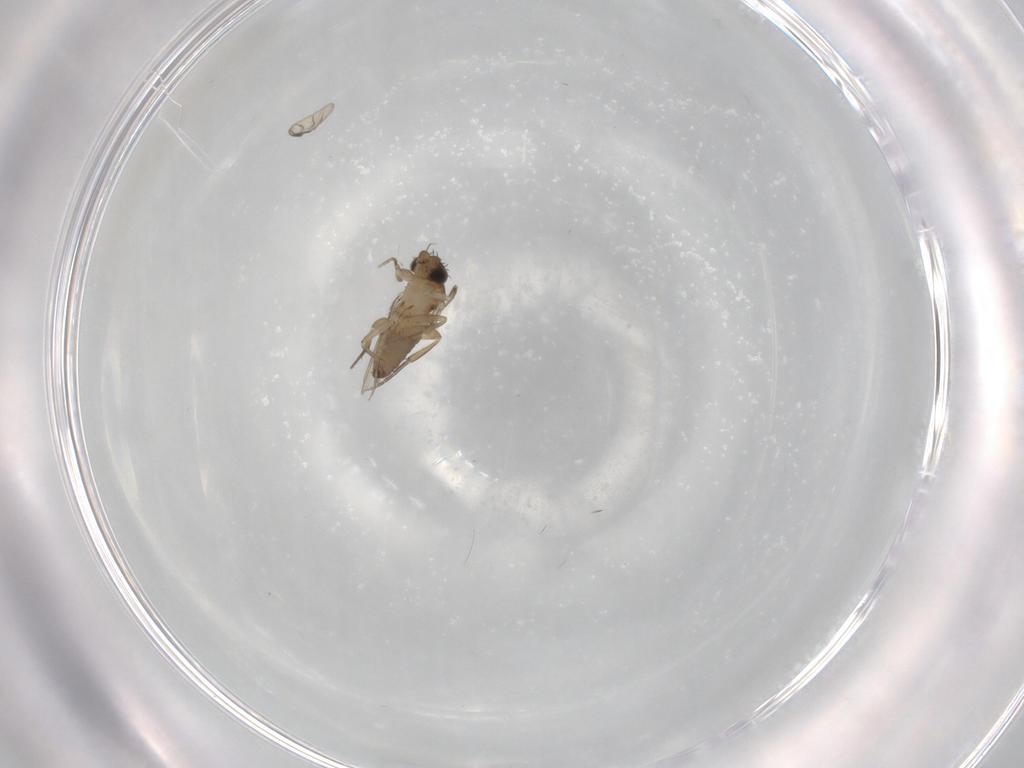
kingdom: Animalia
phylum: Arthropoda
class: Insecta
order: Diptera
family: Phoridae
